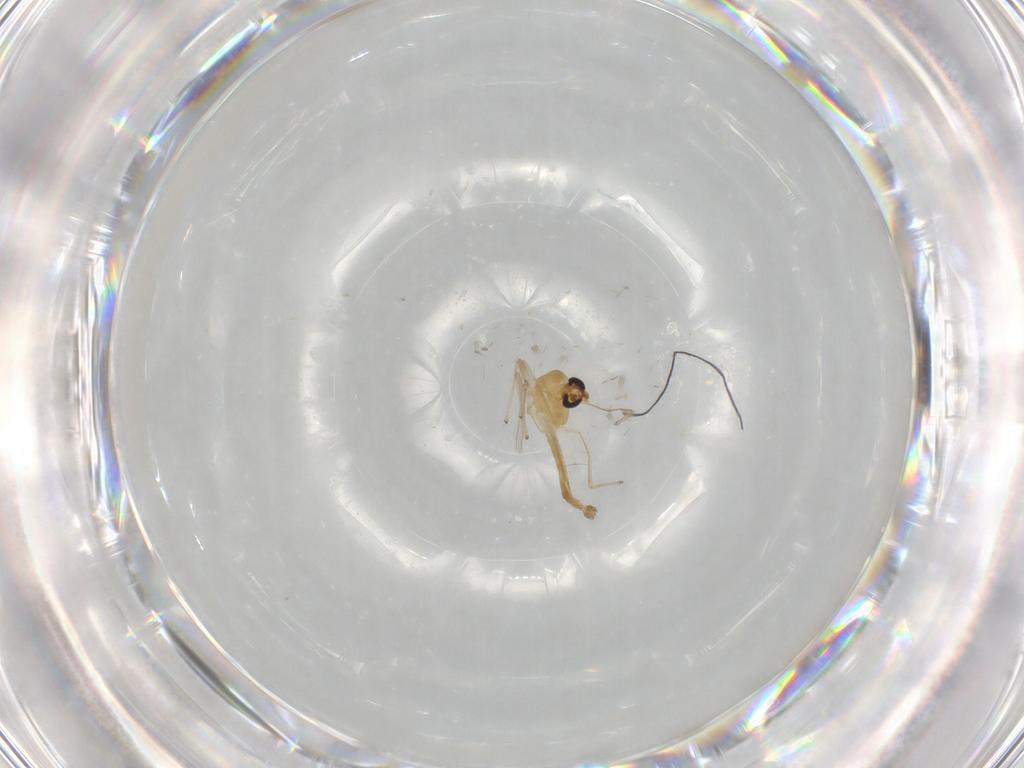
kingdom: Animalia
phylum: Arthropoda
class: Insecta
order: Diptera
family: Chironomidae
